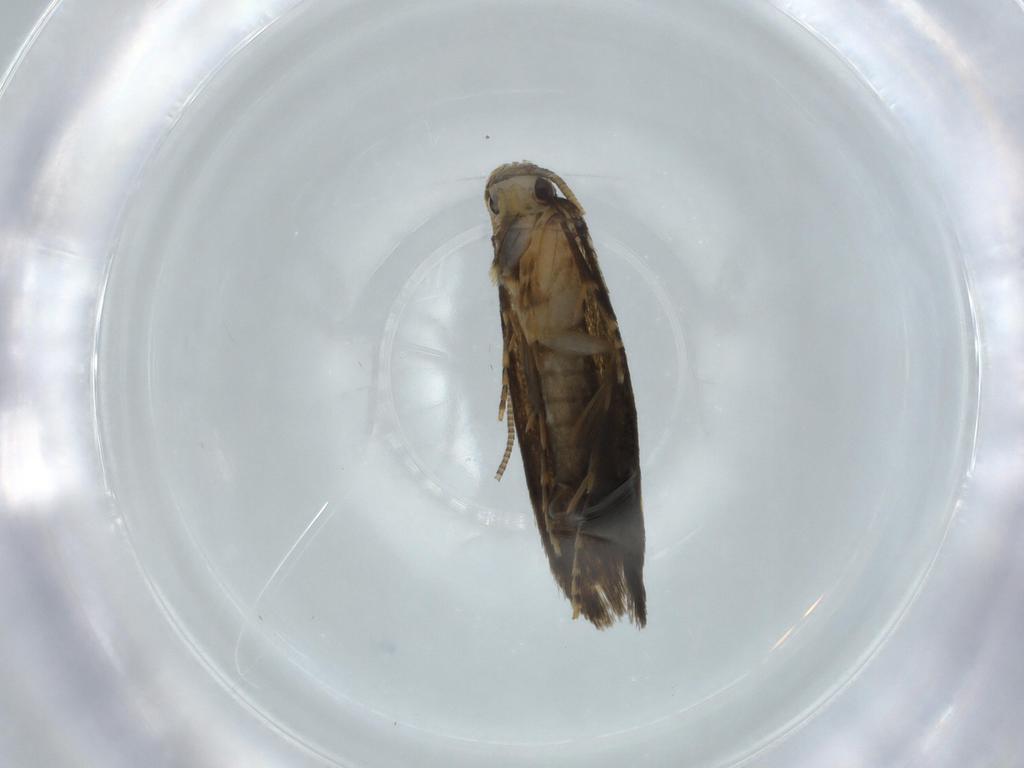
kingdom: Animalia
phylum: Arthropoda
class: Insecta
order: Lepidoptera
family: Tineidae
